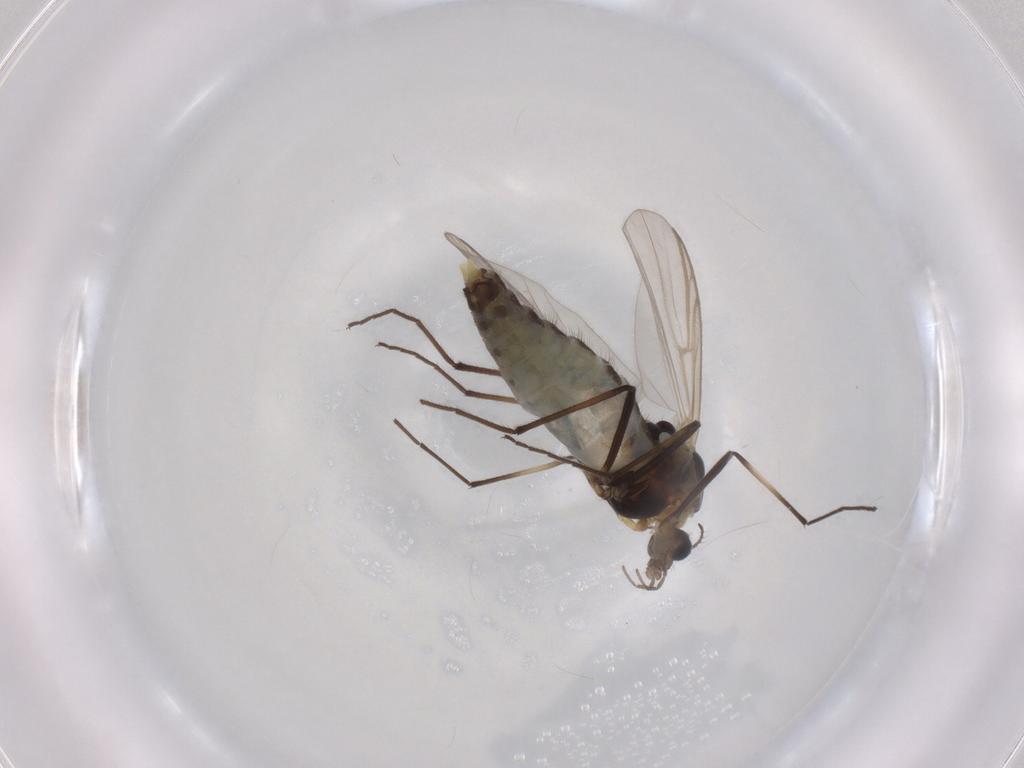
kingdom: Animalia
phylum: Arthropoda
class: Insecta
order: Diptera
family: Chironomidae
